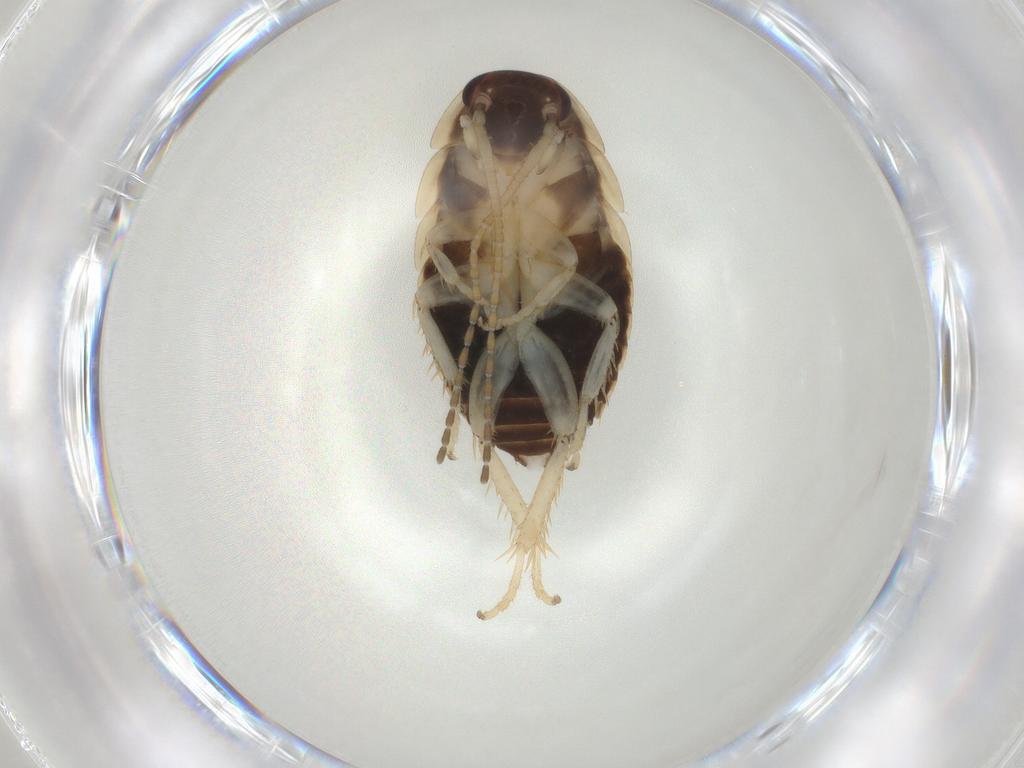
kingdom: Animalia
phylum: Arthropoda
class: Insecta
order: Blattodea
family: Ectobiidae
